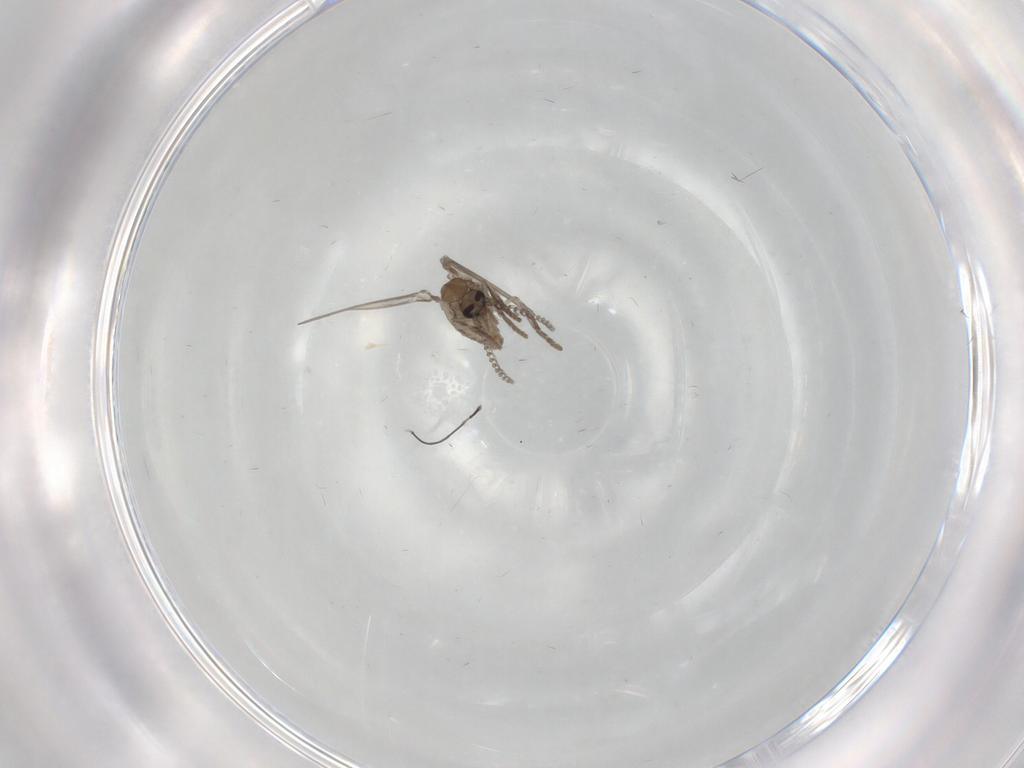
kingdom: Animalia
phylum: Arthropoda
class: Insecta
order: Diptera
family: Psychodidae
